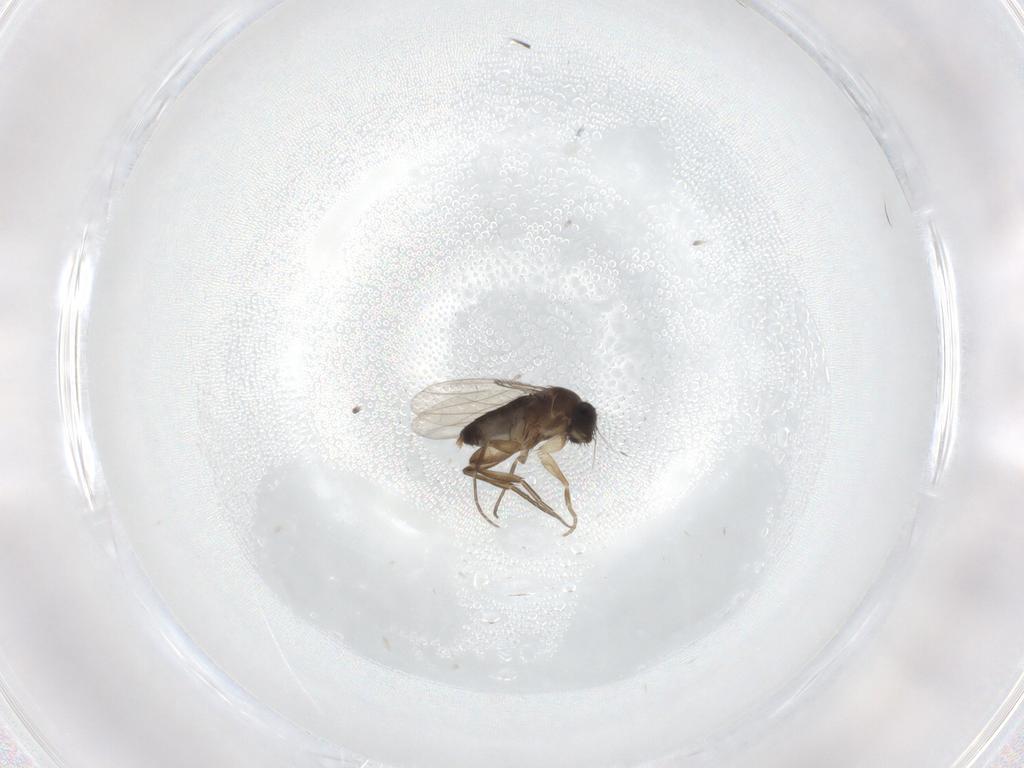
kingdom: Animalia
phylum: Arthropoda
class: Insecta
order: Diptera
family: Phoridae
